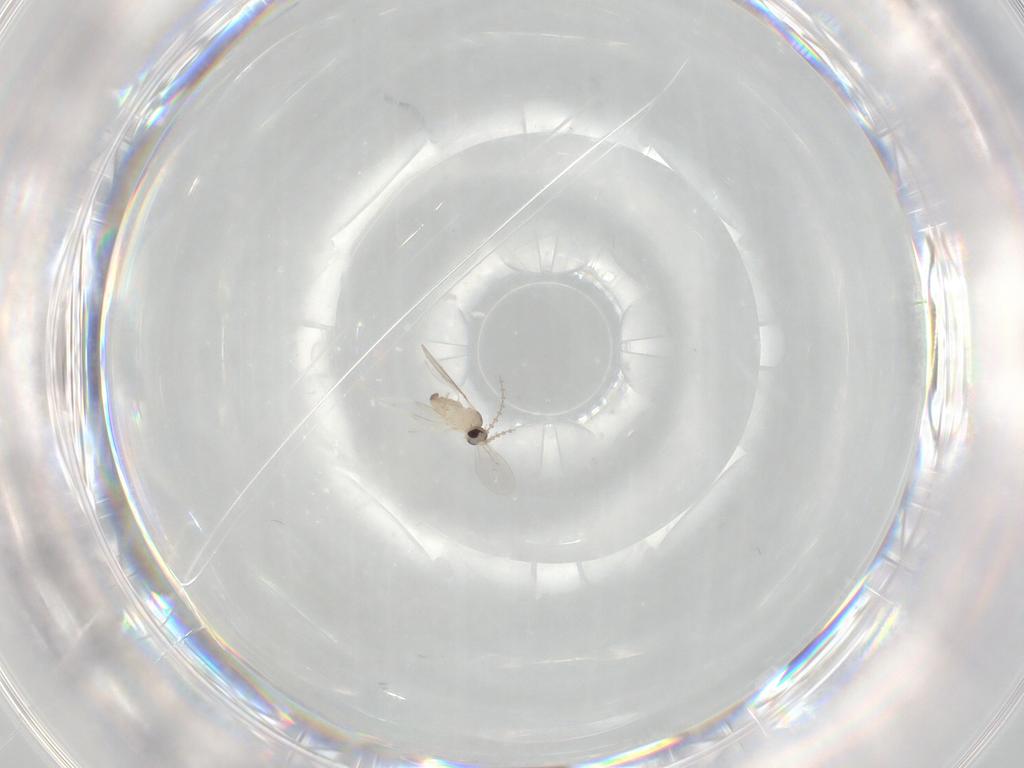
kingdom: Animalia
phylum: Arthropoda
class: Insecta
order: Diptera
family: Cecidomyiidae
